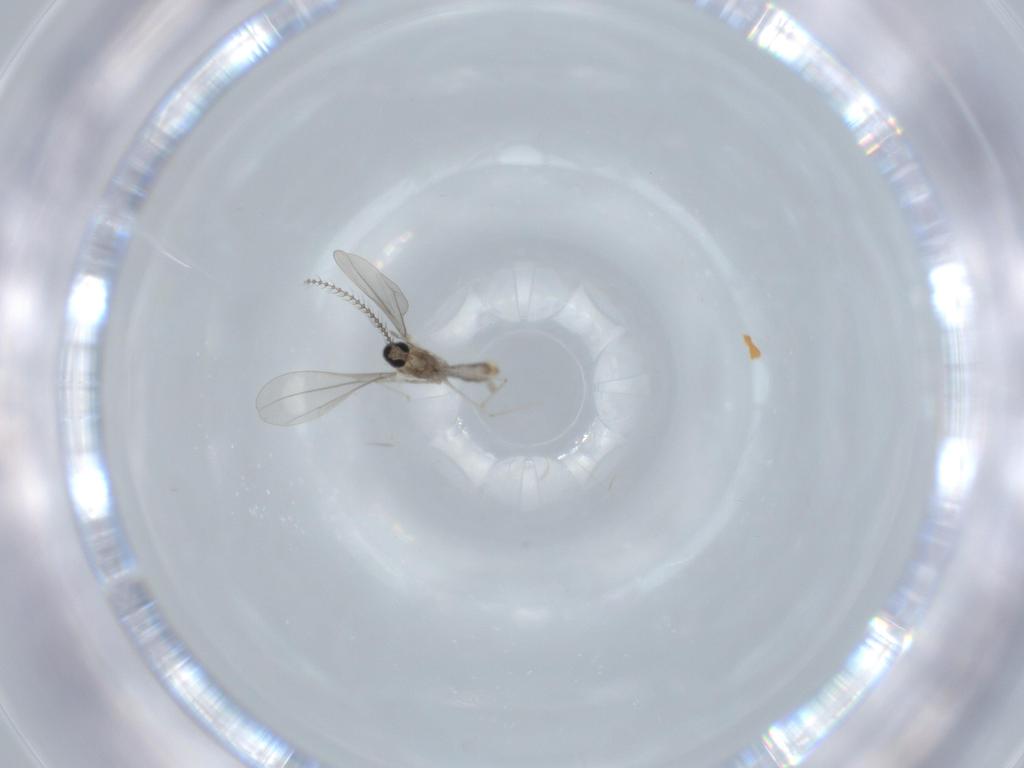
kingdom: Animalia
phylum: Arthropoda
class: Insecta
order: Diptera
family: Cecidomyiidae
